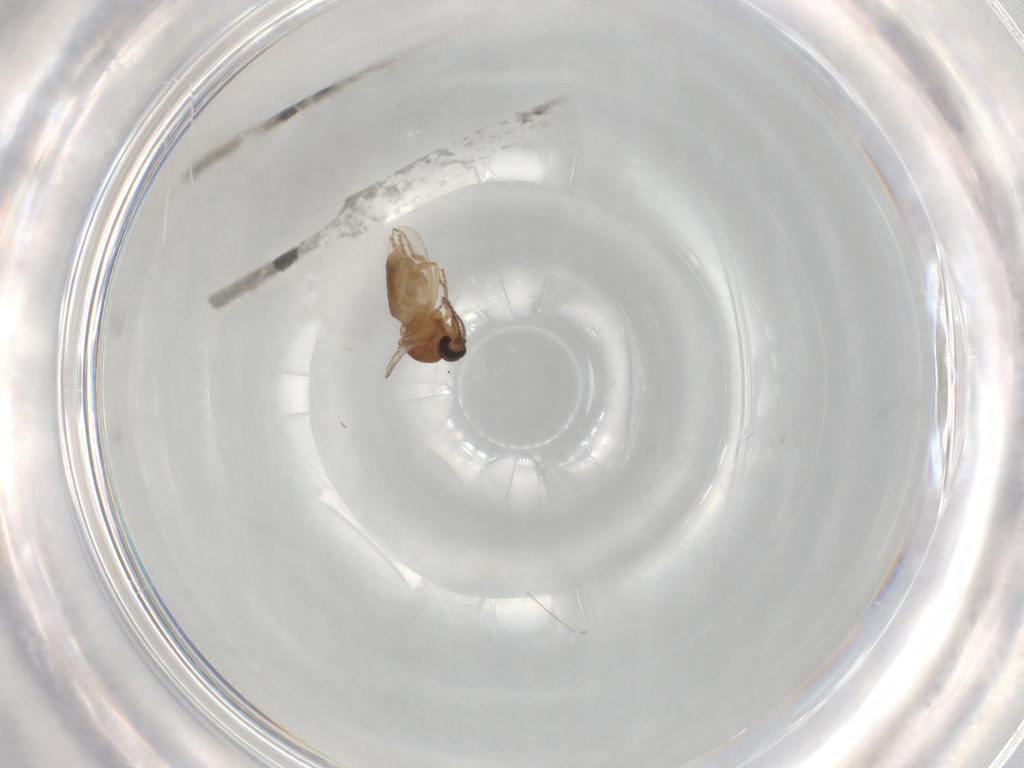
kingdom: Animalia
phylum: Arthropoda
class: Insecta
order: Diptera
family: Ceratopogonidae
